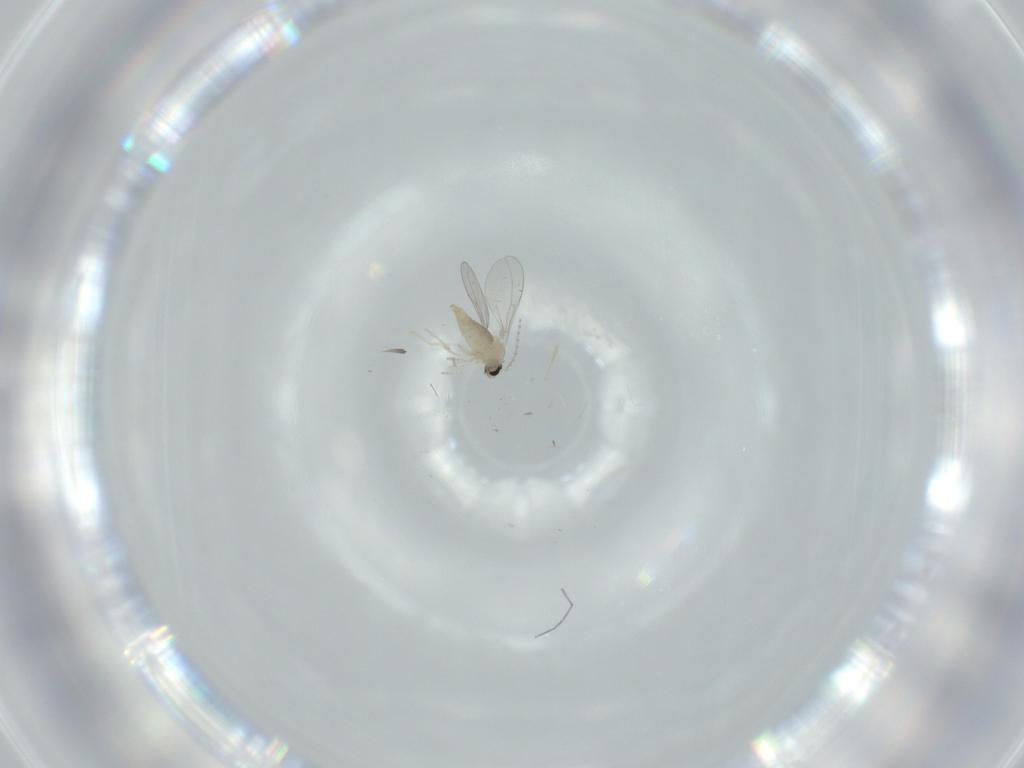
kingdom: Animalia
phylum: Arthropoda
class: Insecta
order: Diptera
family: Cecidomyiidae
